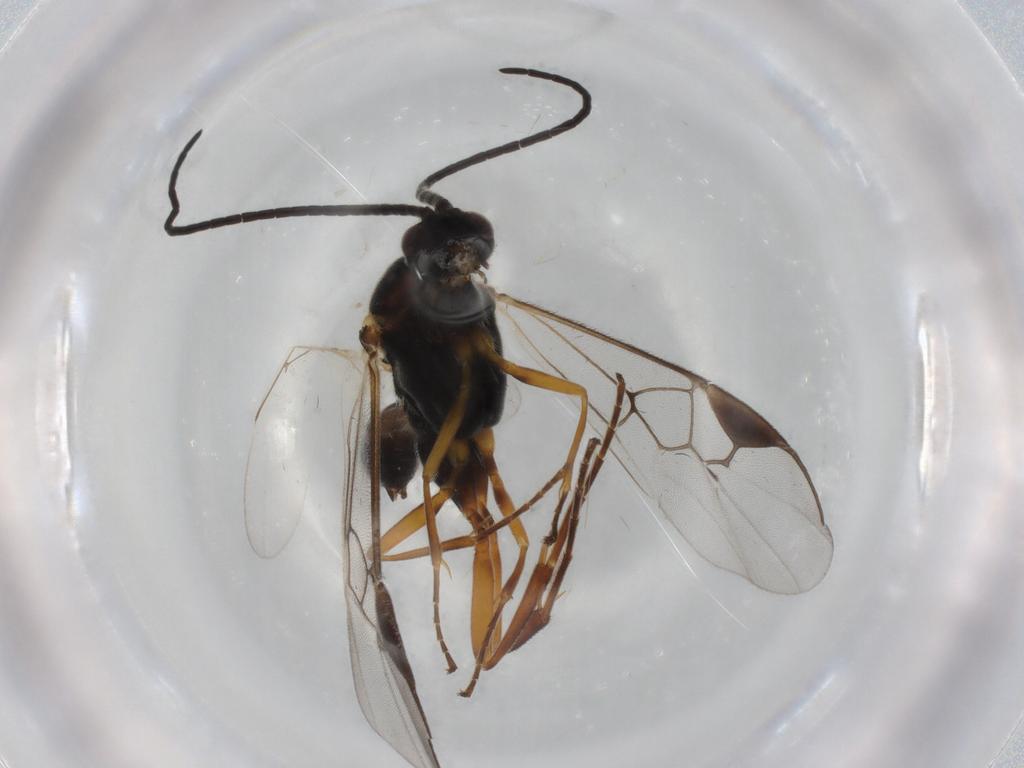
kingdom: Animalia
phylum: Arthropoda
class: Insecta
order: Hymenoptera
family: Braconidae
